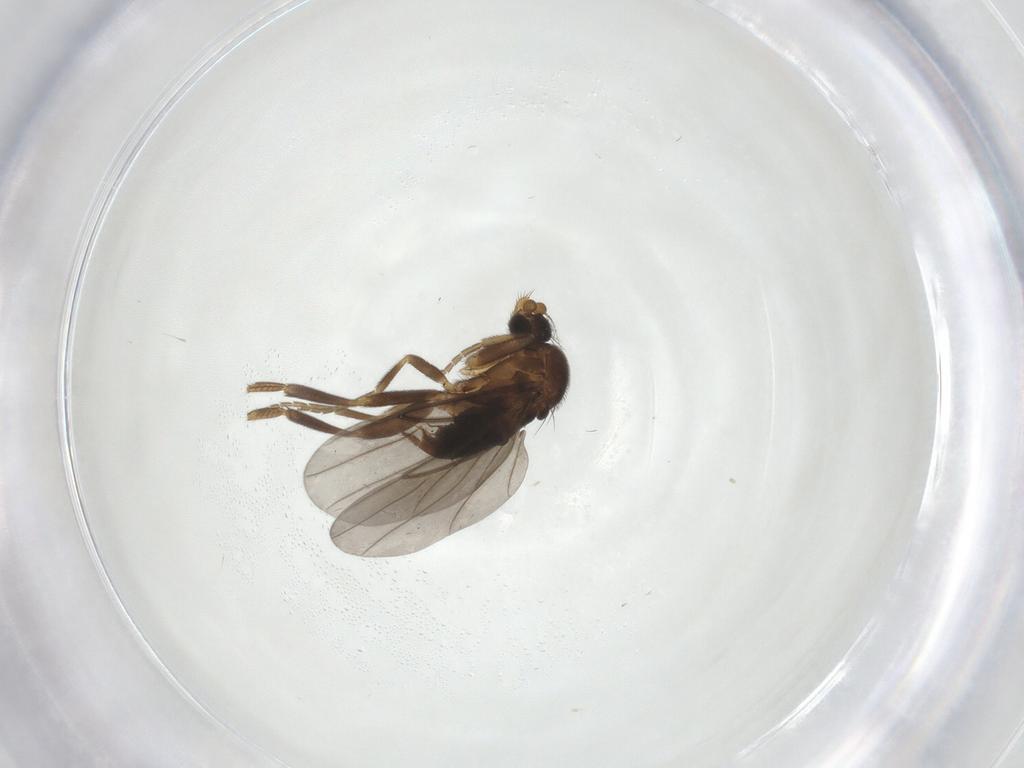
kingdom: Animalia
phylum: Arthropoda
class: Insecta
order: Diptera
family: Phoridae
